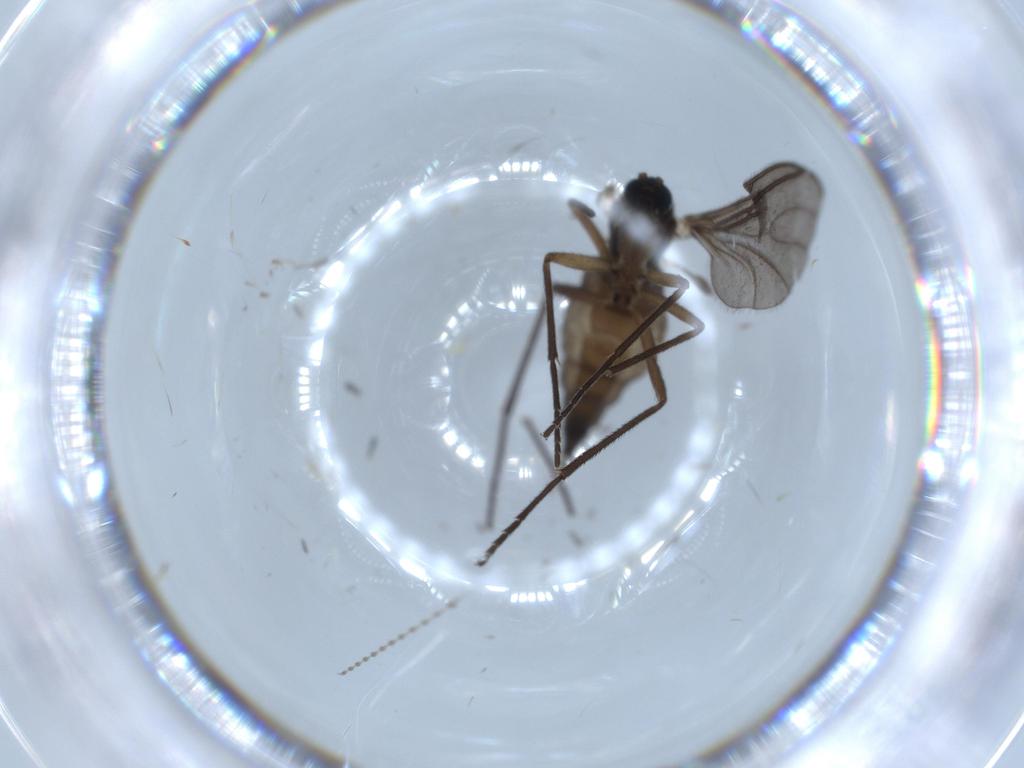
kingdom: Animalia
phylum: Arthropoda
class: Insecta
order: Diptera
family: Sciaridae
